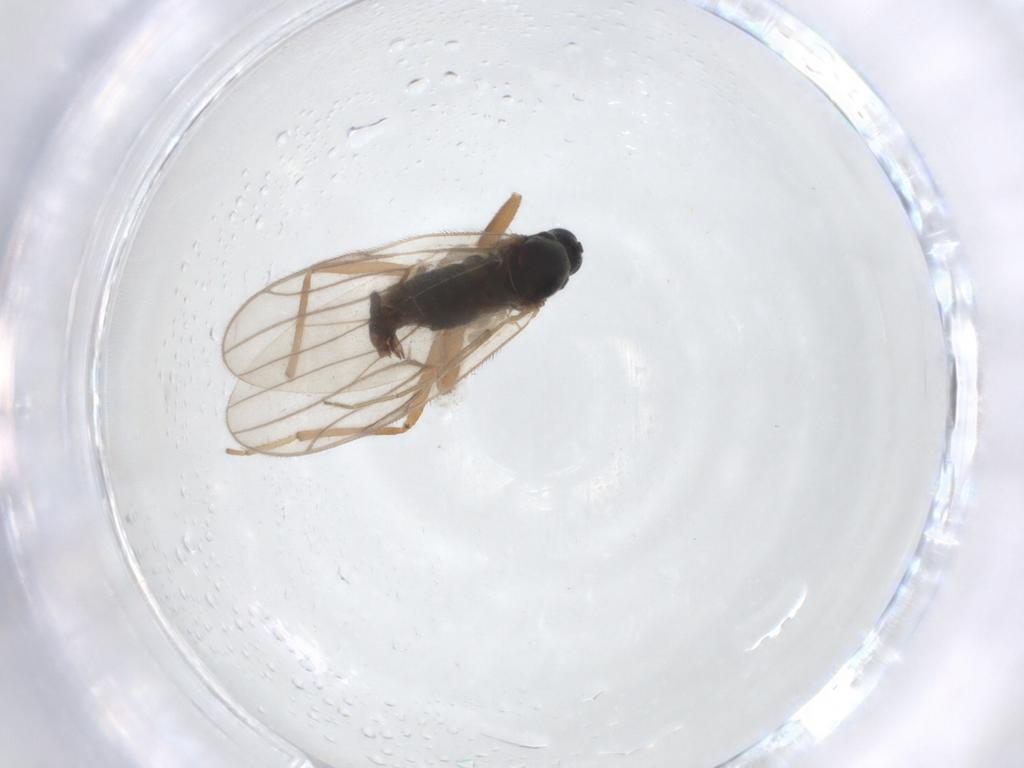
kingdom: Animalia
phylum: Arthropoda
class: Insecta
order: Diptera
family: Hybotidae
